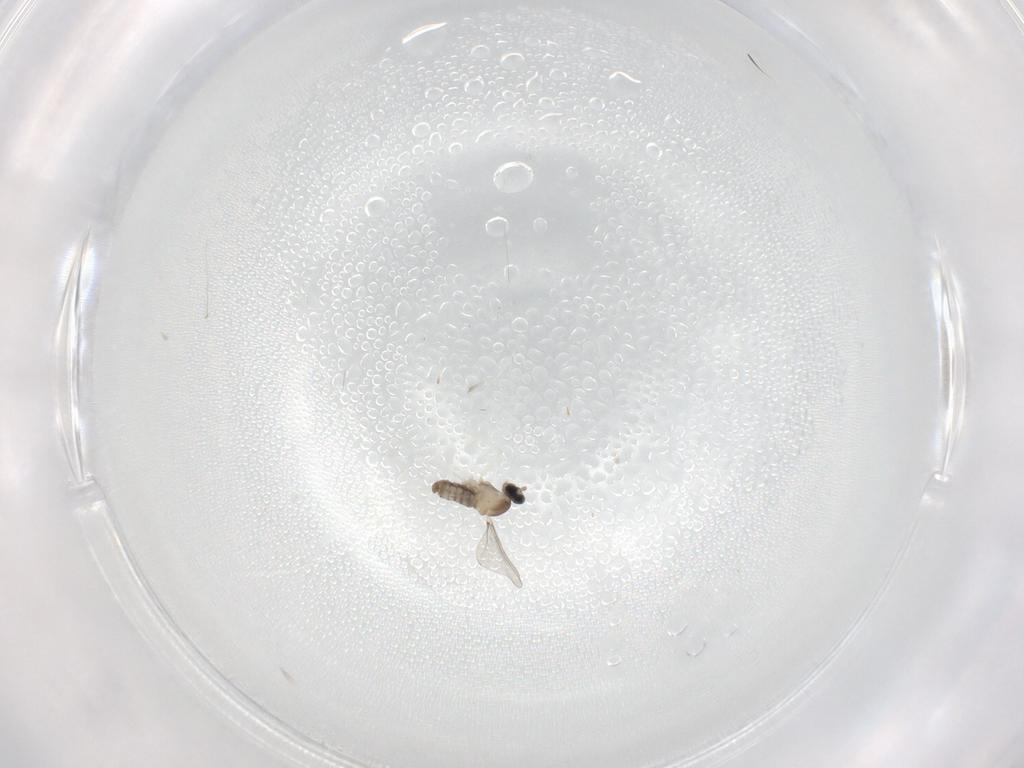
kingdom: Animalia
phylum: Arthropoda
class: Insecta
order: Diptera
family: Cecidomyiidae
